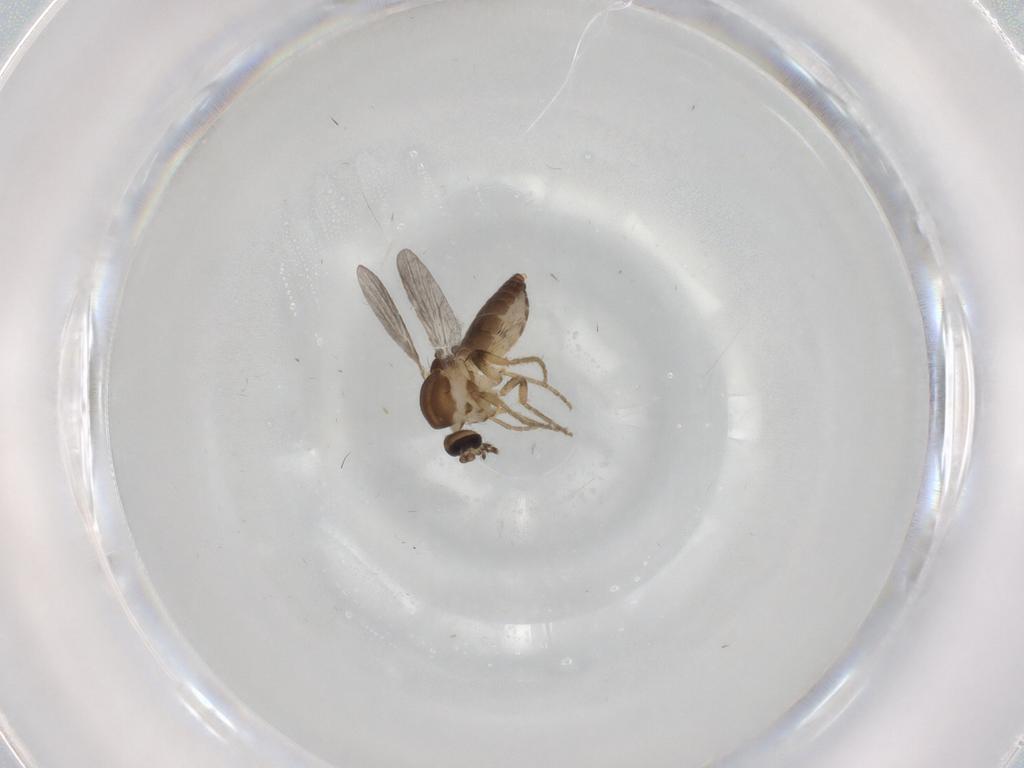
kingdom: Animalia
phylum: Arthropoda
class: Insecta
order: Diptera
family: Ceratopogonidae
